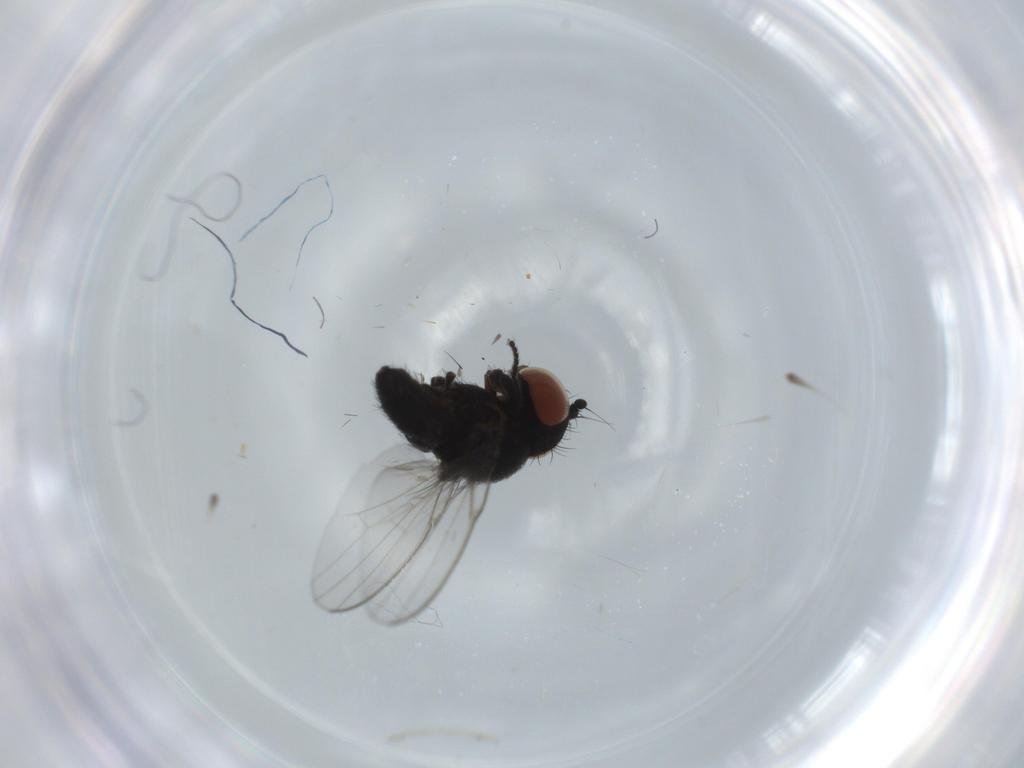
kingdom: Animalia
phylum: Arthropoda
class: Insecta
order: Diptera
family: Milichiidae
